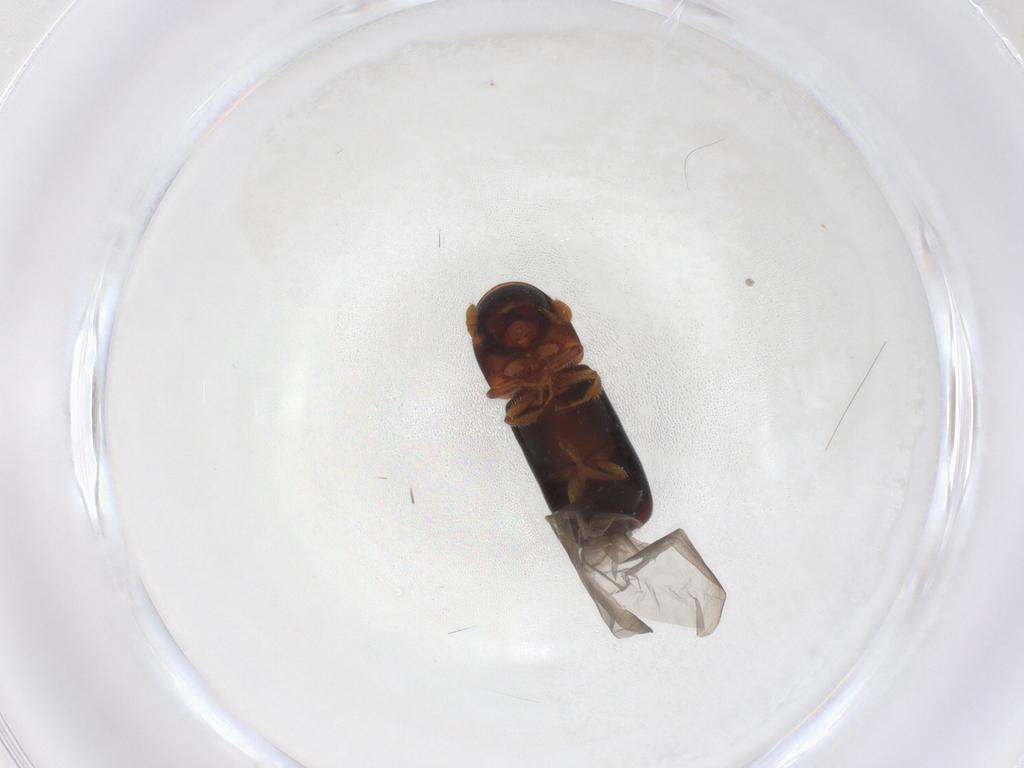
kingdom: Animalia
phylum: Arthropoda
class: Insecta
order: Coleoptera
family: Curculionidae
